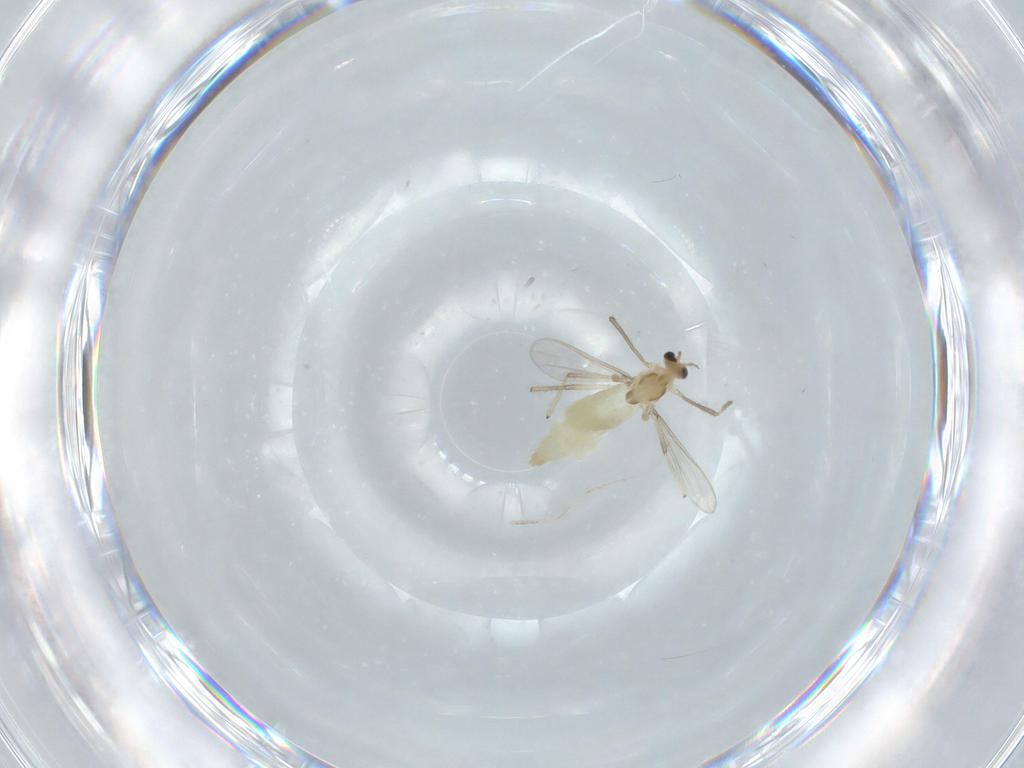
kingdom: Animalia
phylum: Arthropoda
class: Insecta
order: Diptera
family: Chironomidae
